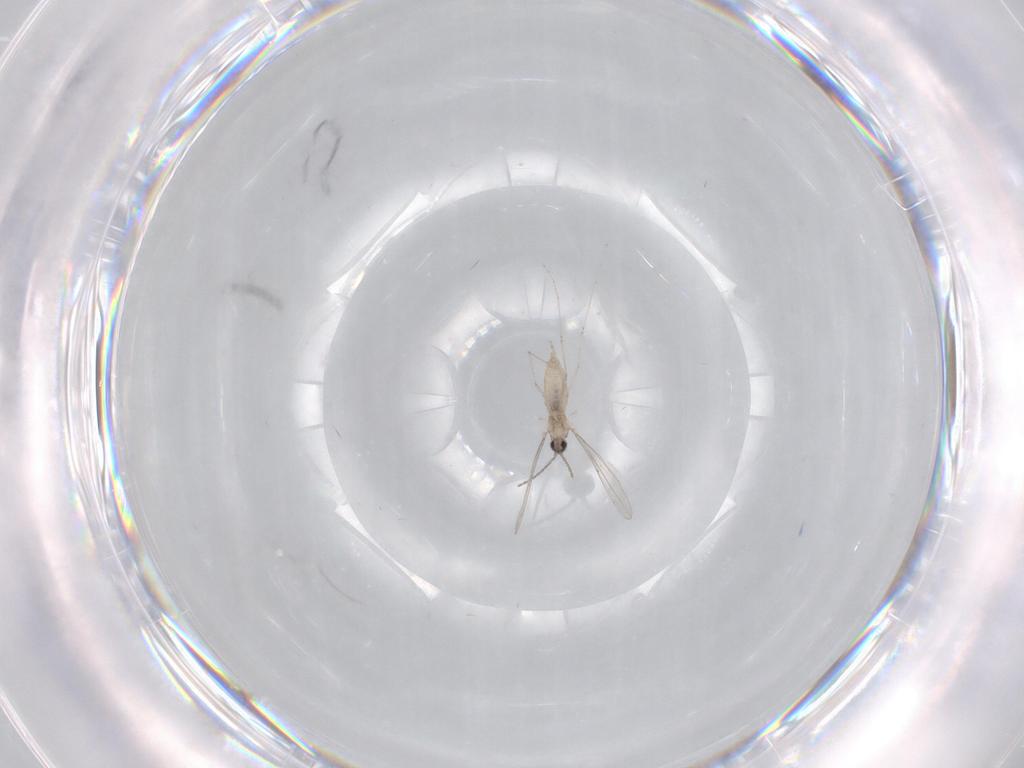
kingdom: Animalia
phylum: Arthropoda
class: Insecta
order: Diptera
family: Cecidomyiidae
